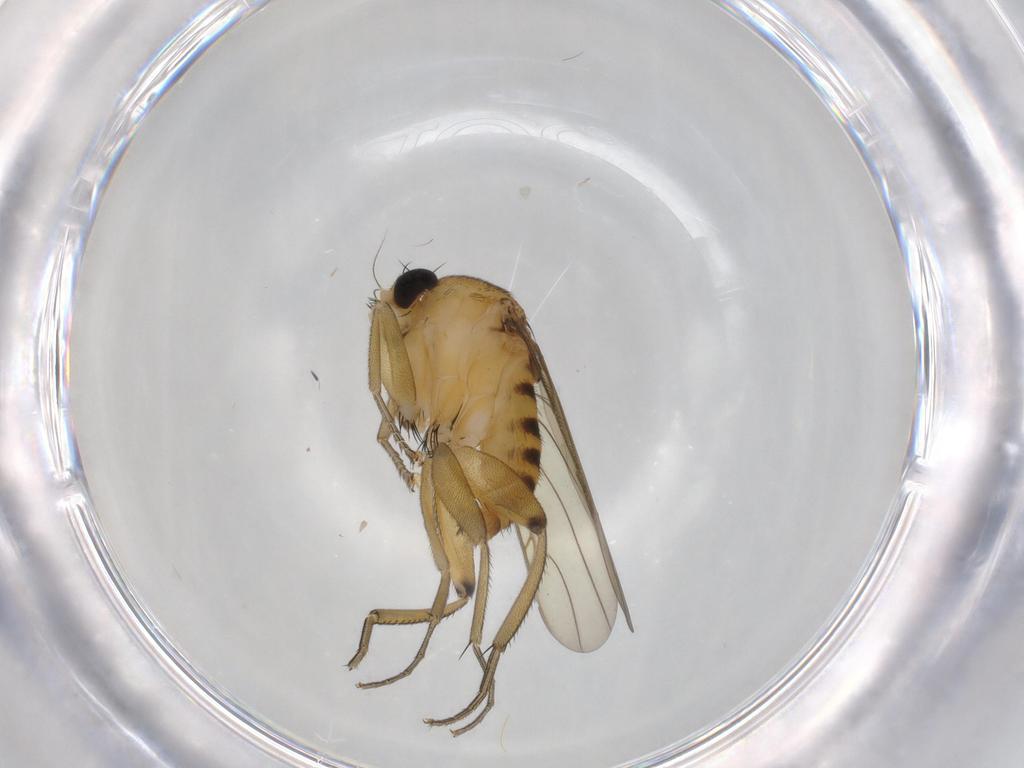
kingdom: Animalia
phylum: Arthropoda
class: Insecta
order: Diptera
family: Phoridae
